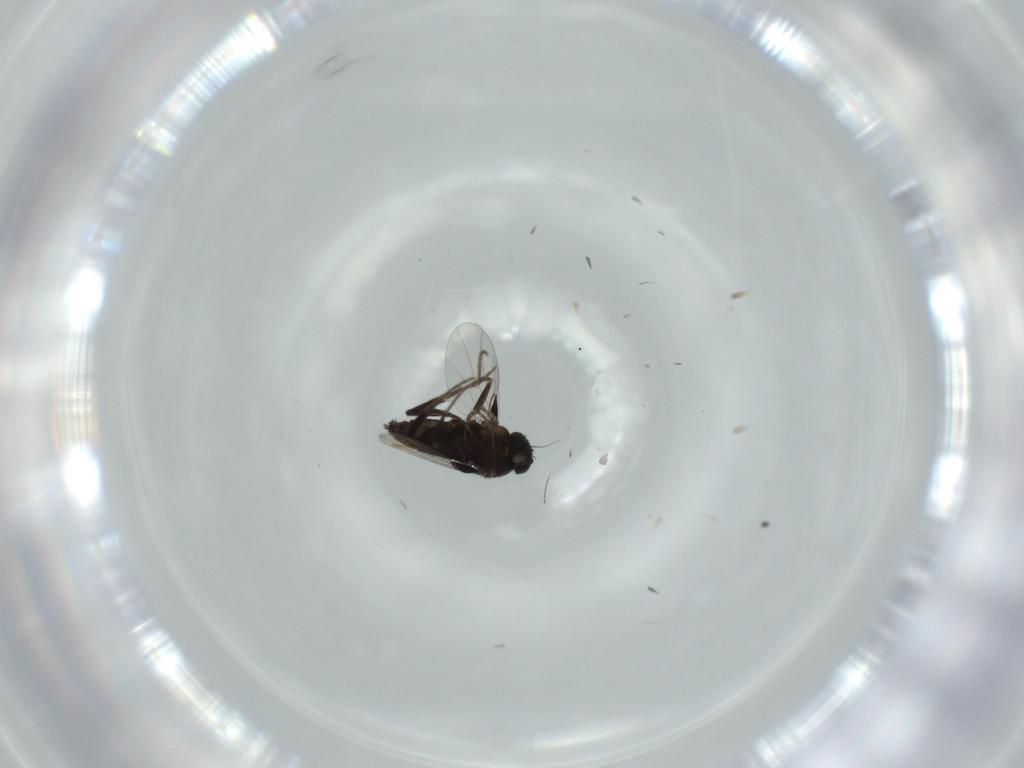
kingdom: Animalia
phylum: Arthropoda
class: Insecta
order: Diptera
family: Phoridae
